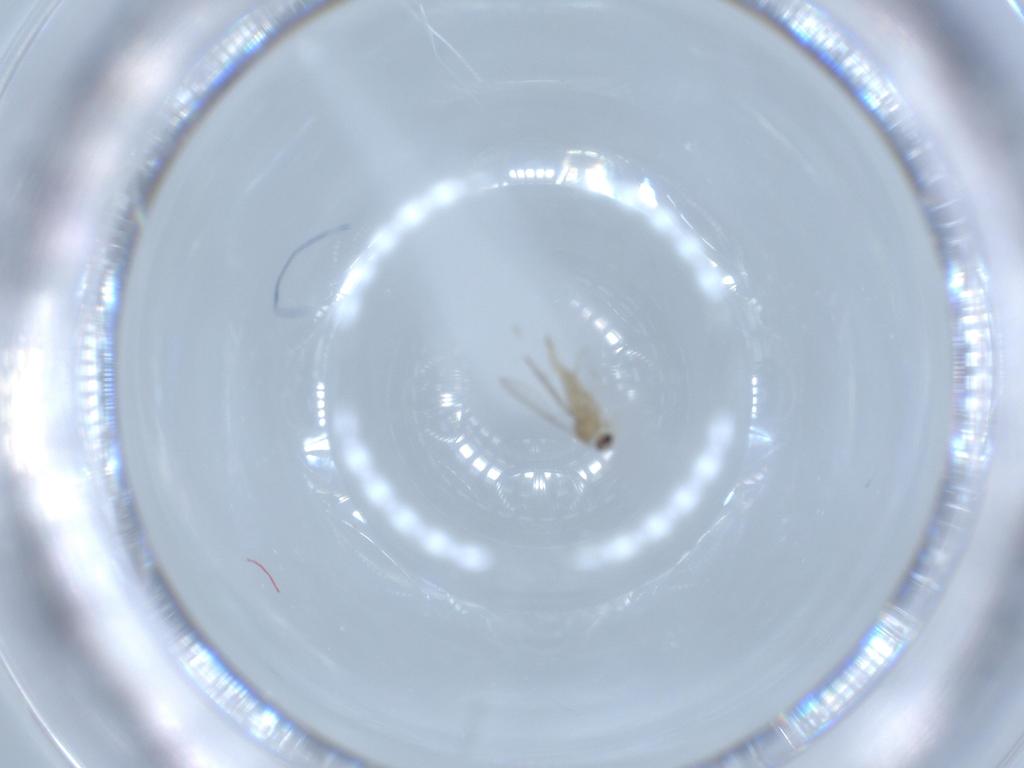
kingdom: Animalia
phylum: Arthropoda
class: Insecta
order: Diptera
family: Cecidomyiidae
